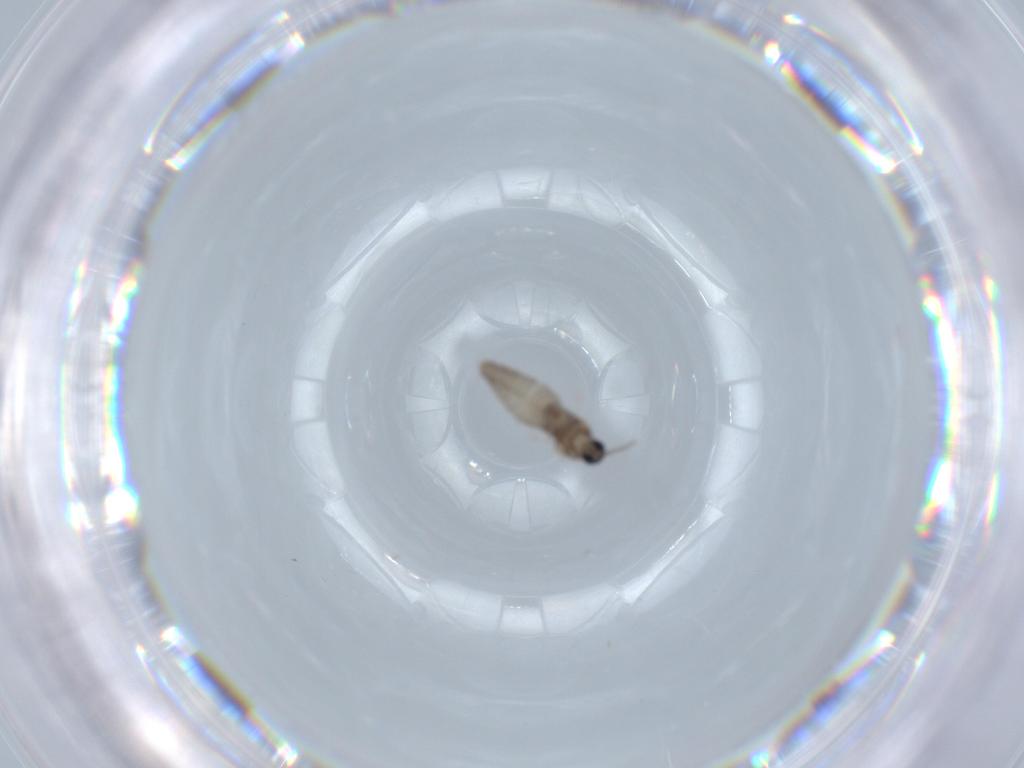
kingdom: Animalia
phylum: Arthropoda
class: Insecta
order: Diptera
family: Cecidomyiidae
